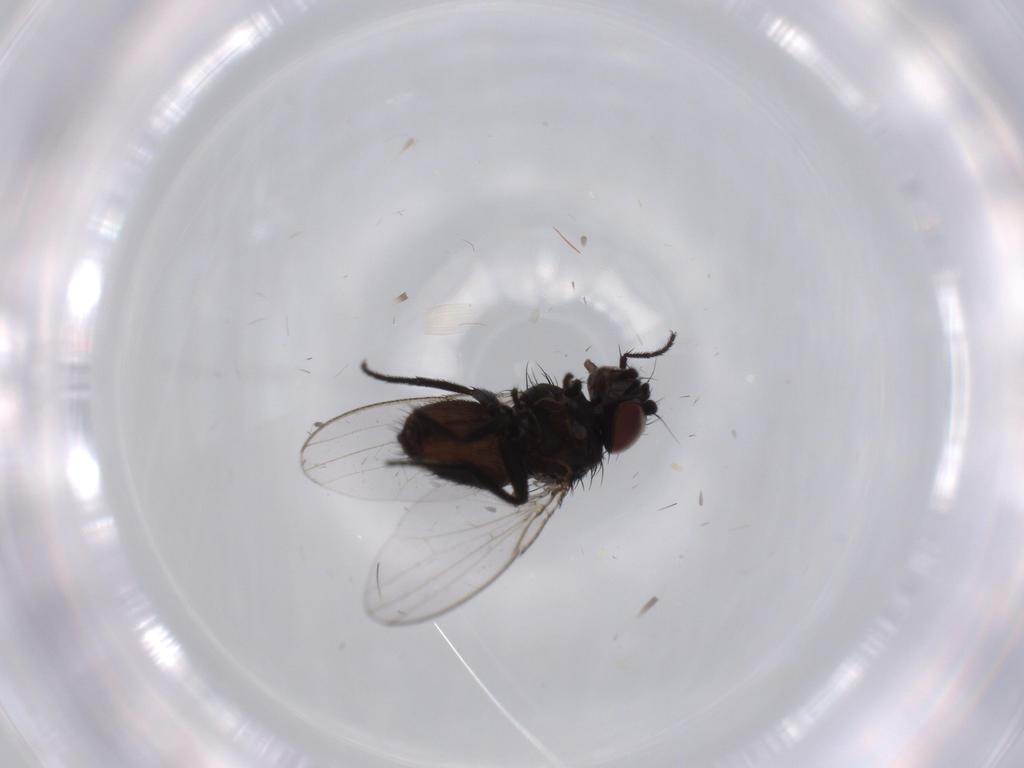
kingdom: Animalia
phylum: Arthropoda
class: Insecta
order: Diptera
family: Limoniidae
